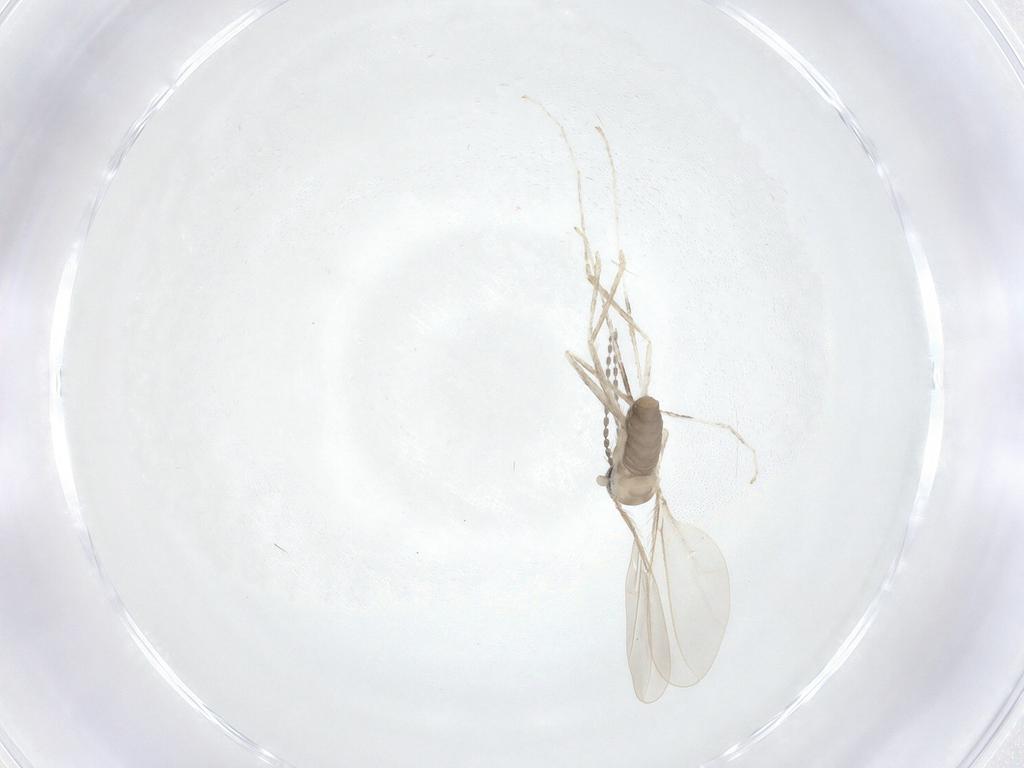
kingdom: Animalia
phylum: Arthropoda
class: Insecta
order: Diptera
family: Cecidomyiidae
